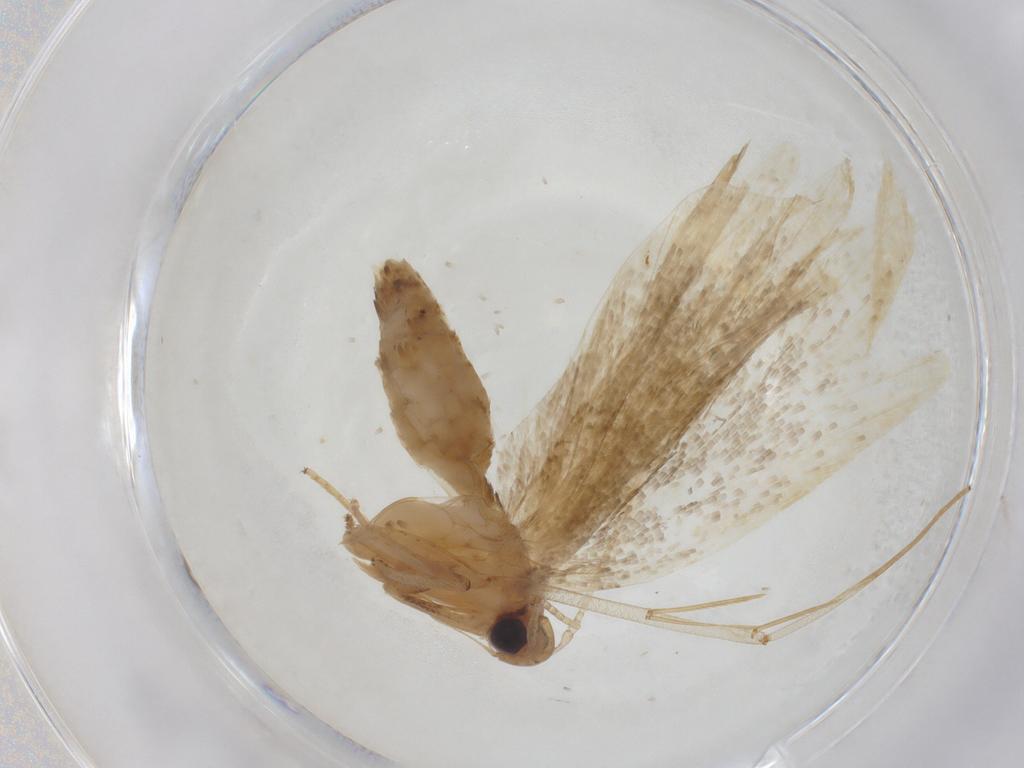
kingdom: Animalia
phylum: Arthropoda
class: Insecta
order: Lepidoptera
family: Lecithoceridae
